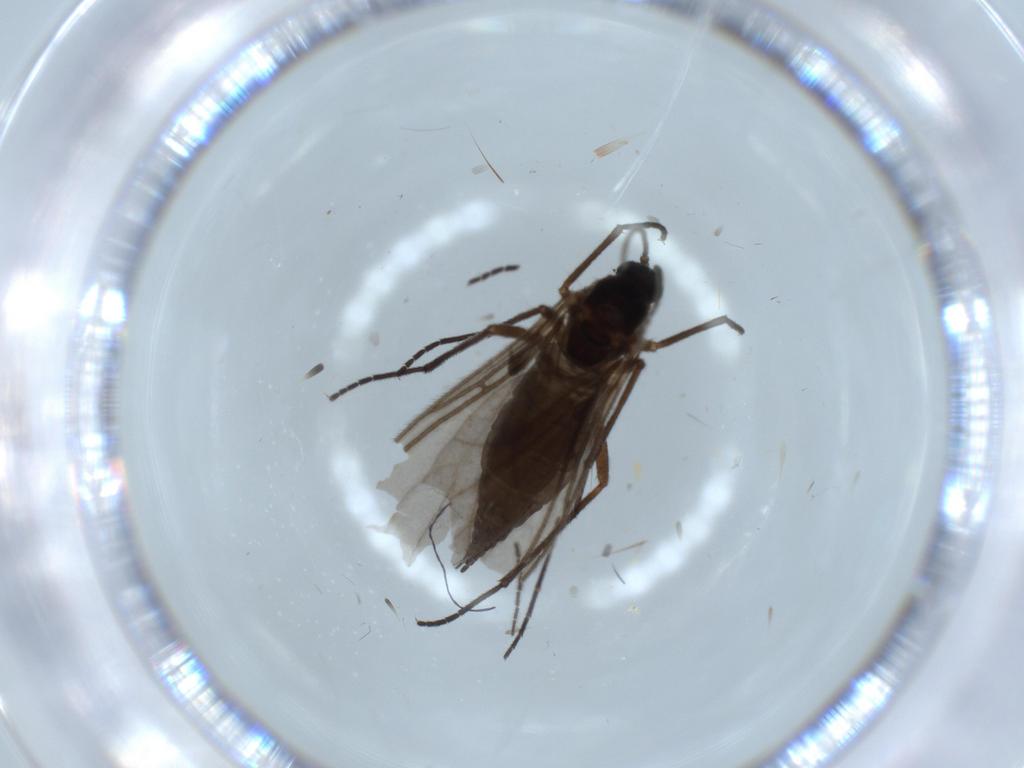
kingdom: Animalia
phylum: Arthropoda
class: Insecta
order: Diptera
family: Sciaridae
